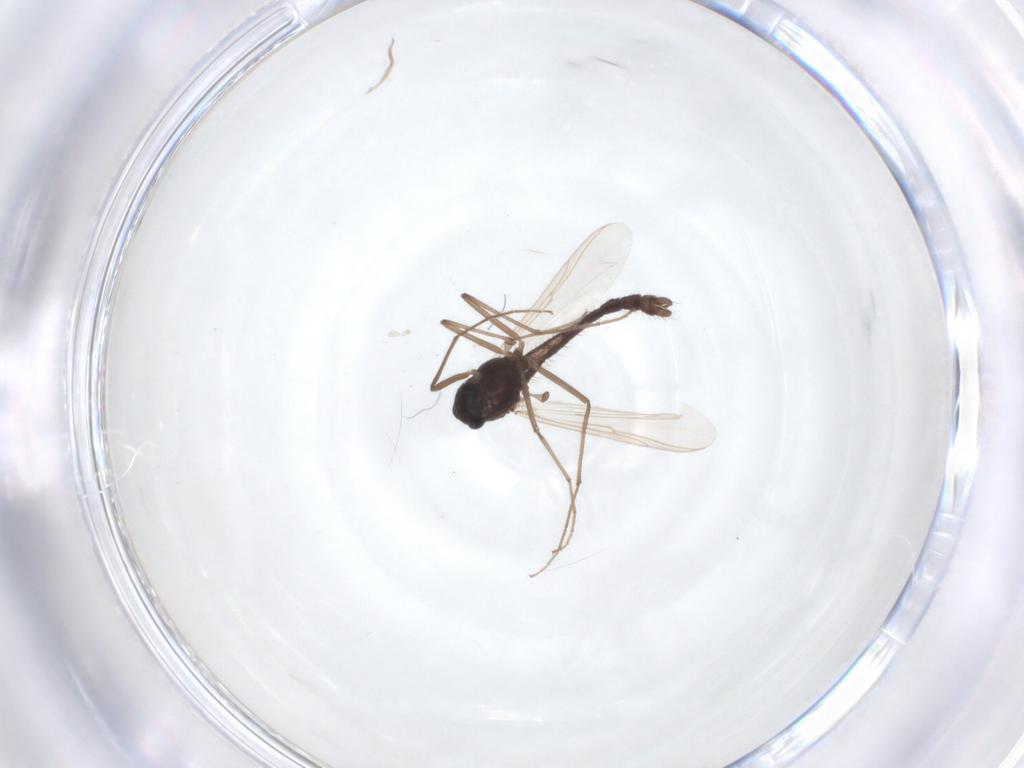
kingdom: Animalia
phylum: Arthropoda
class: Insecta
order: Diptera
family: Chironomidae
